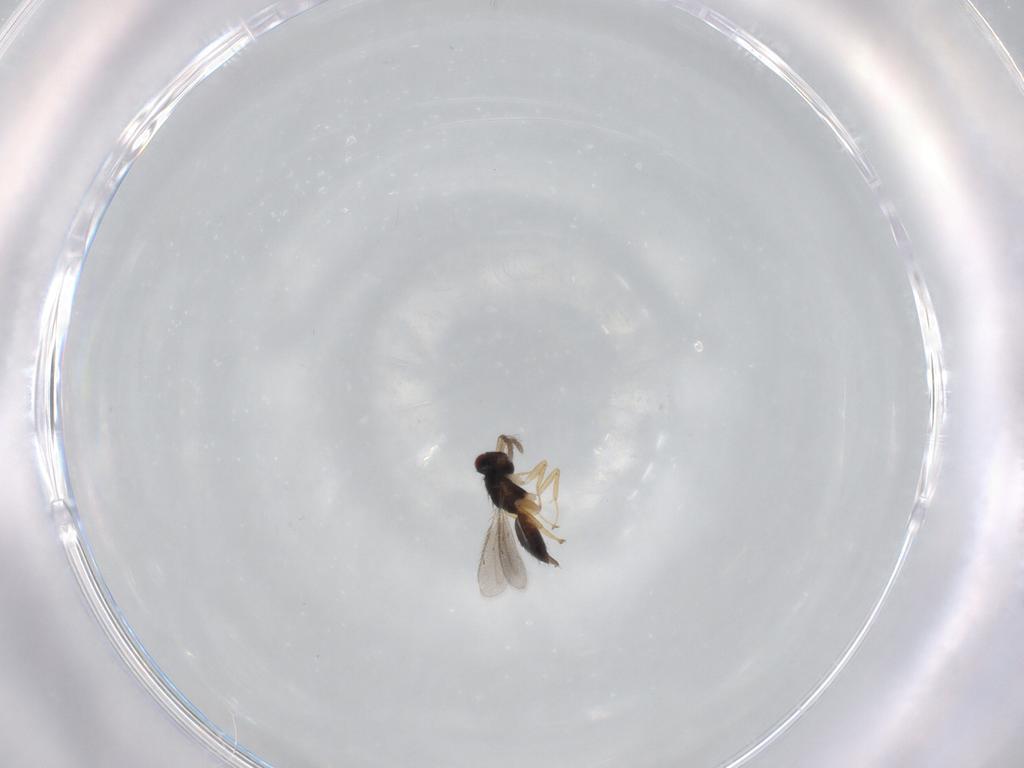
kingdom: Animalia
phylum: Arthropoda
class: Insecta
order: Hymenoptera
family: Eulophidae
